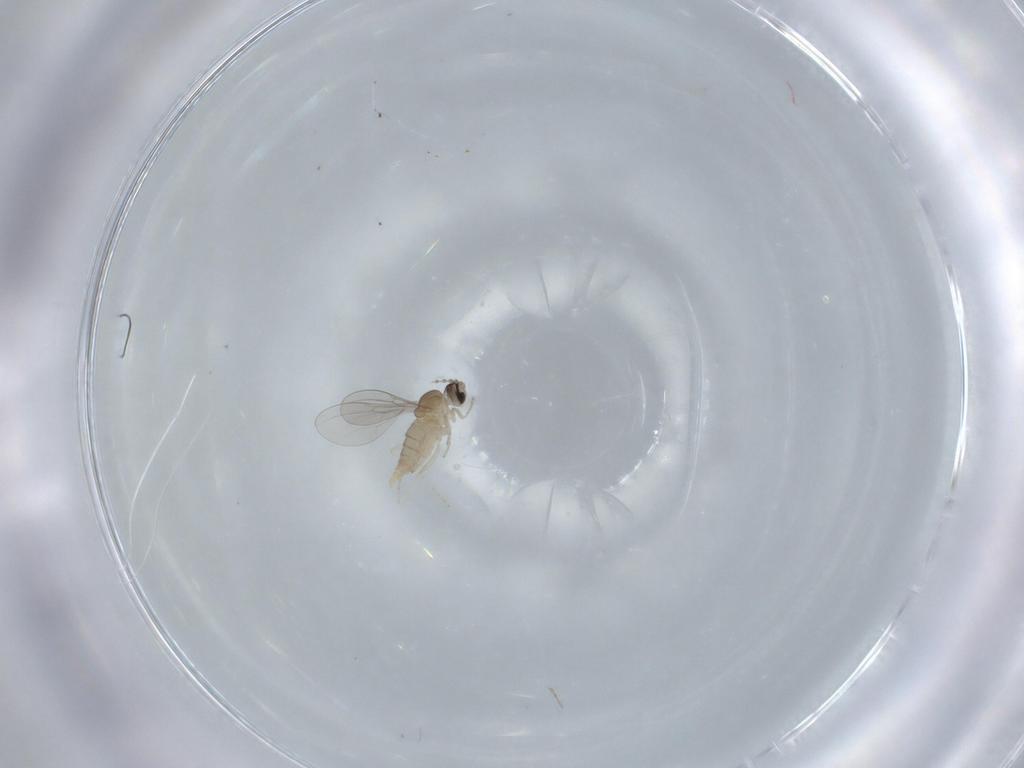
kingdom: Animalia
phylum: Arthropoda
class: Insecta
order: Diptera
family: Cecidomyiidae
